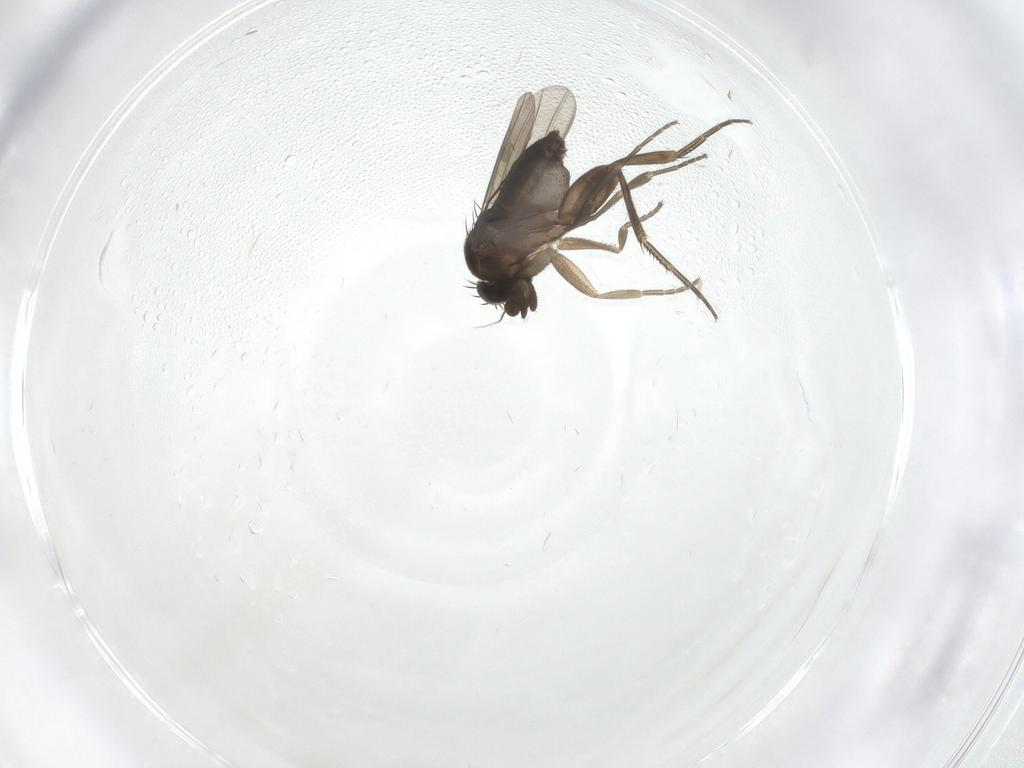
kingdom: Animalia
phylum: Arthropoda
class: Insecta
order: Diptera
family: Phoridae
